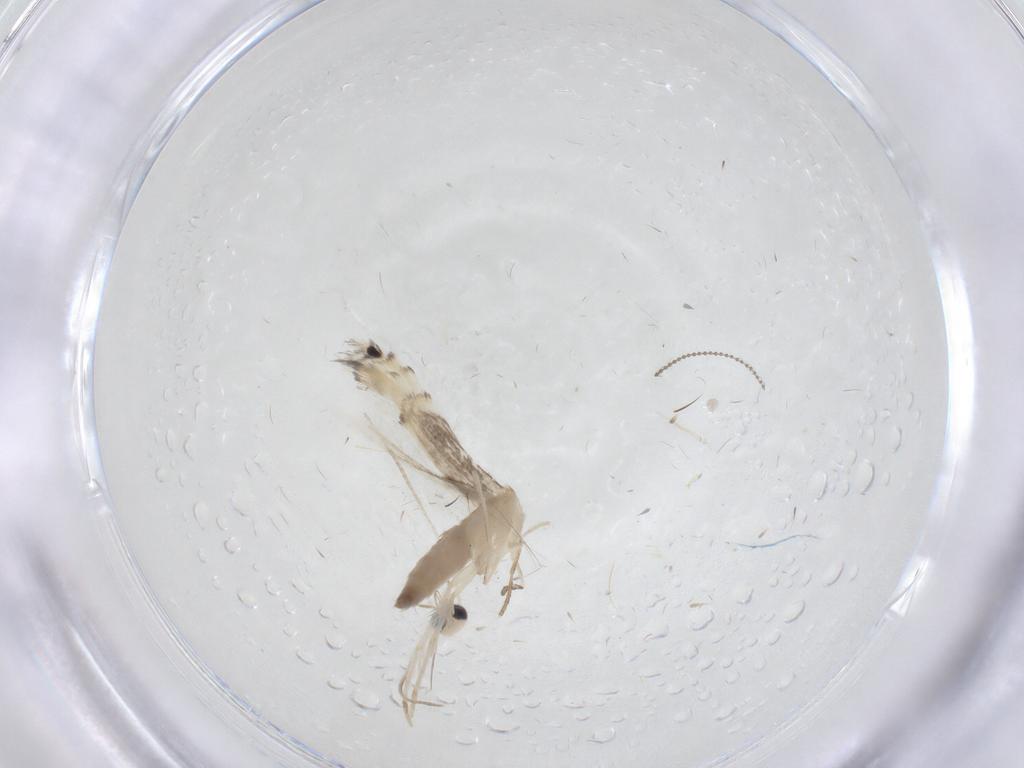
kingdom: Animalia
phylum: Arthropoda
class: Insecta
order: Lepidoptera
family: Gracillariidae
